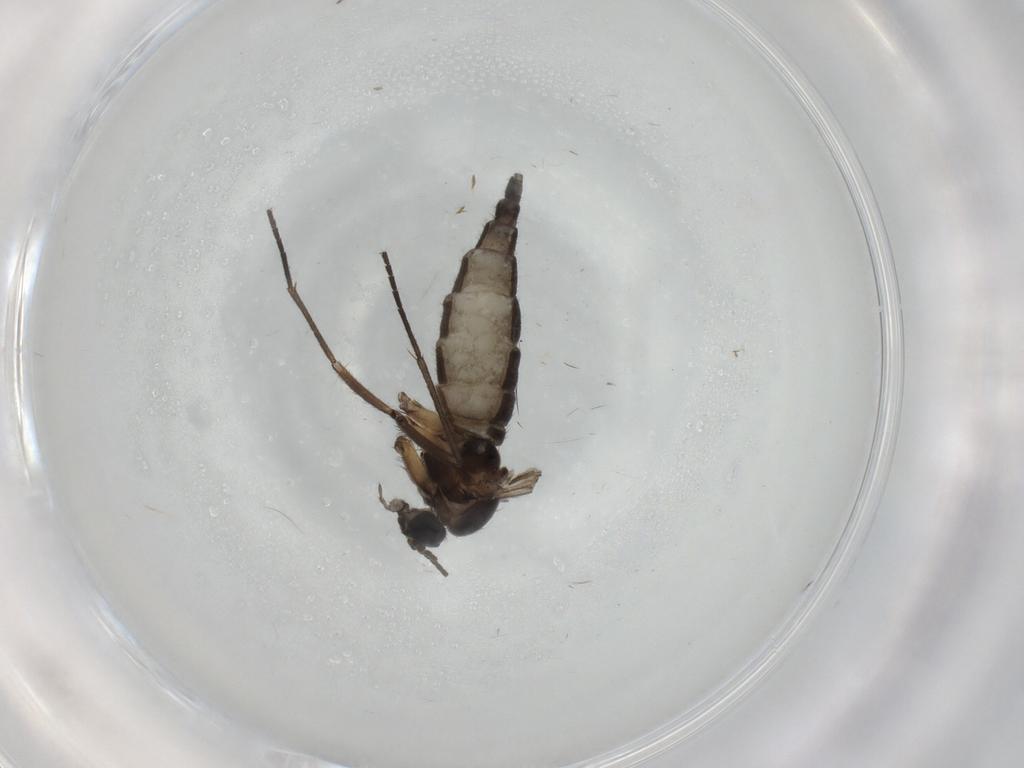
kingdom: Animalia
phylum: Arthropoda
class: Insecta
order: Diptera
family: Sciaridae
